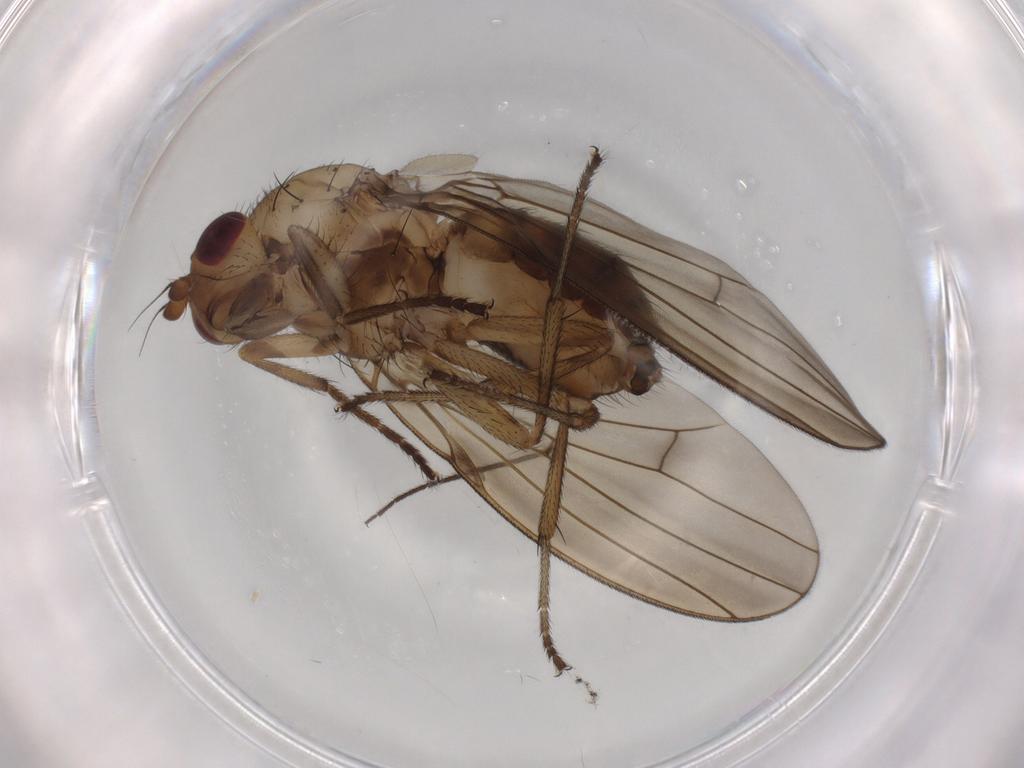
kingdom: Animalia
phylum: Arthropoda
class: Insecta
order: Diptera
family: Lauxaniidae
